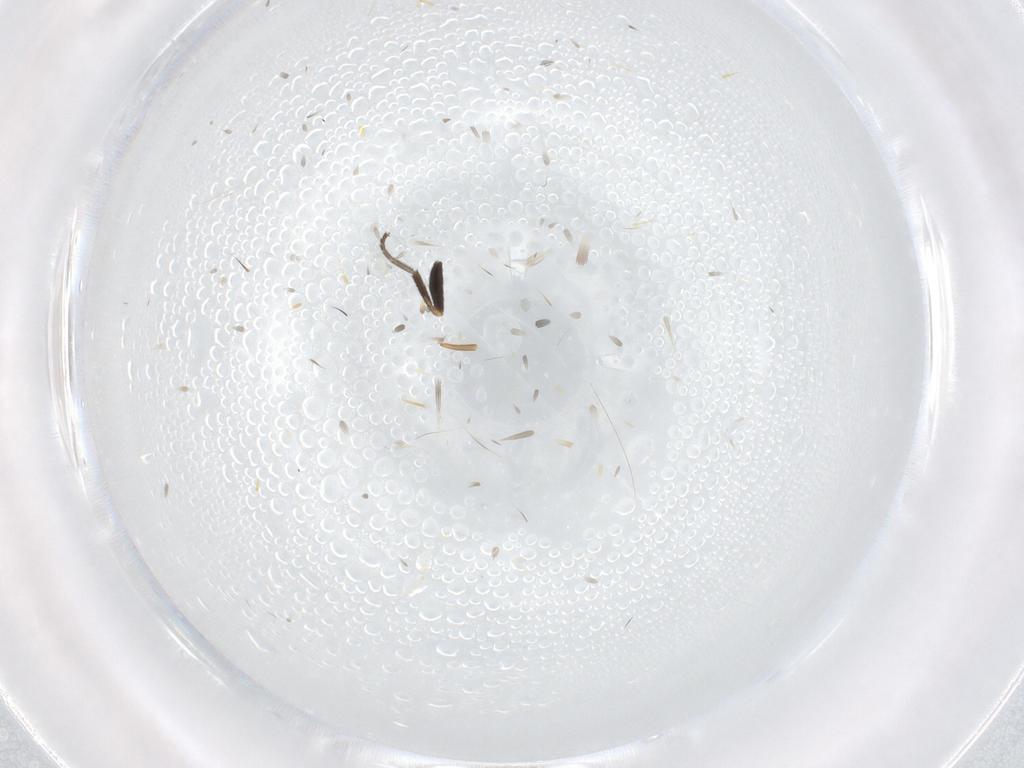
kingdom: Animalia
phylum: Arthropoda
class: Insecta
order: Diptera
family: Agromyzidae
